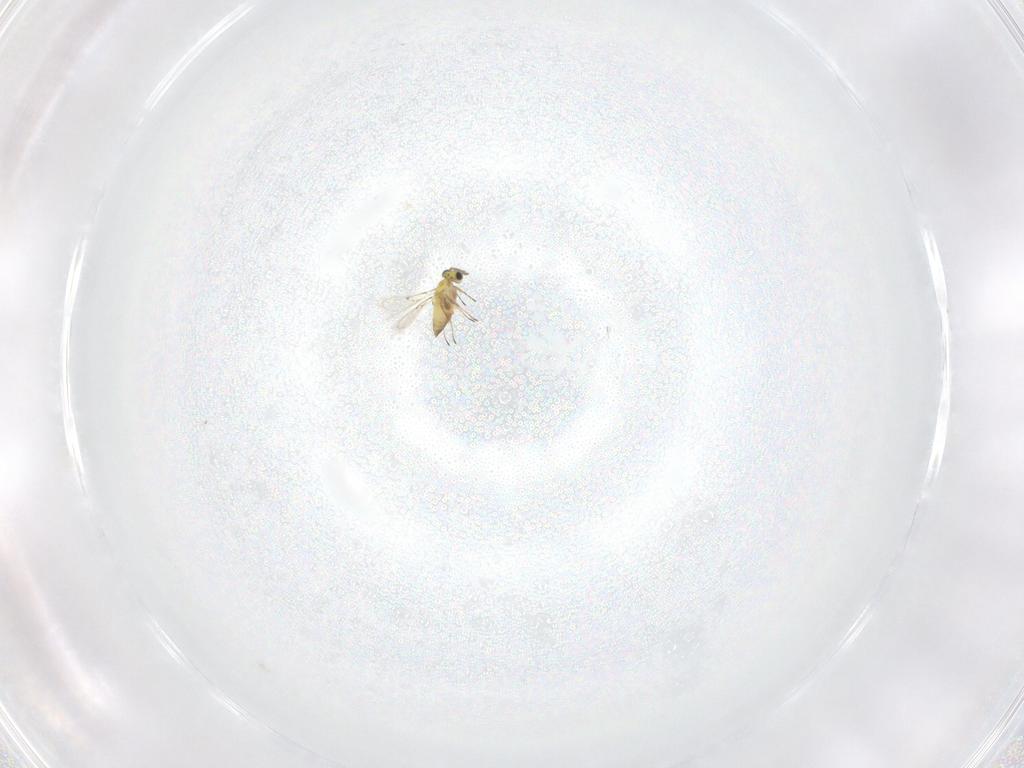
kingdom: Animalia
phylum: Arthropoda
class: Insecta
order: Hymenoptera
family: Trichogrammatidae
